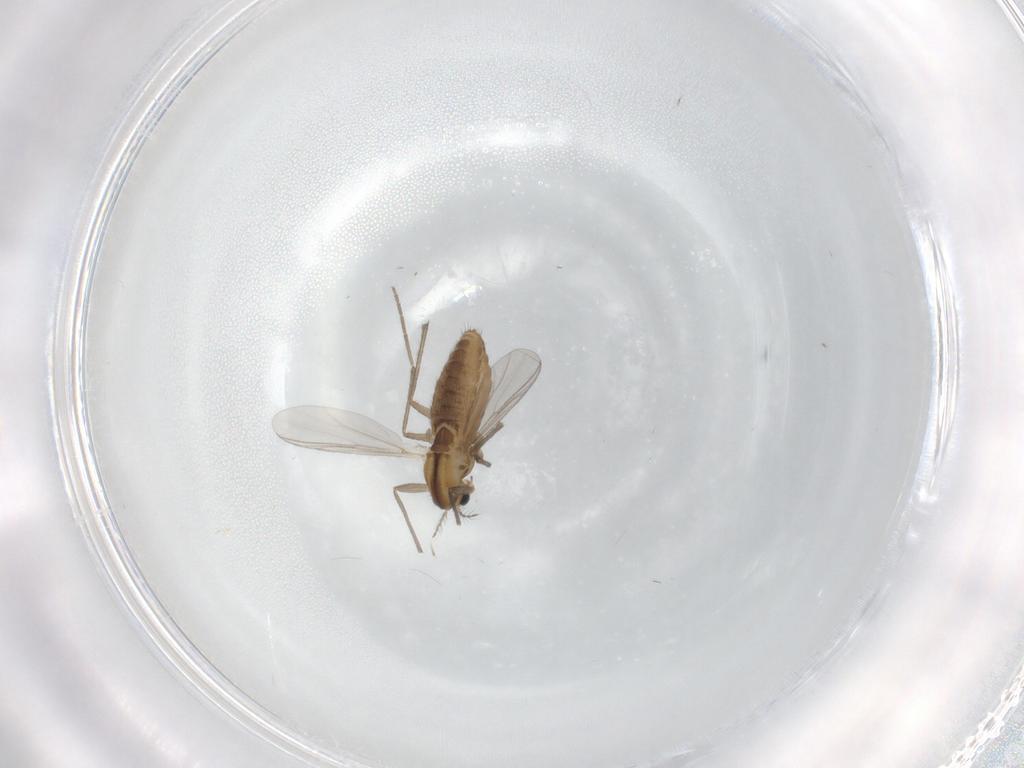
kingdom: Animalia
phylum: Arthropoda
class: Insecta
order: Diptera
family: Chironomidae
